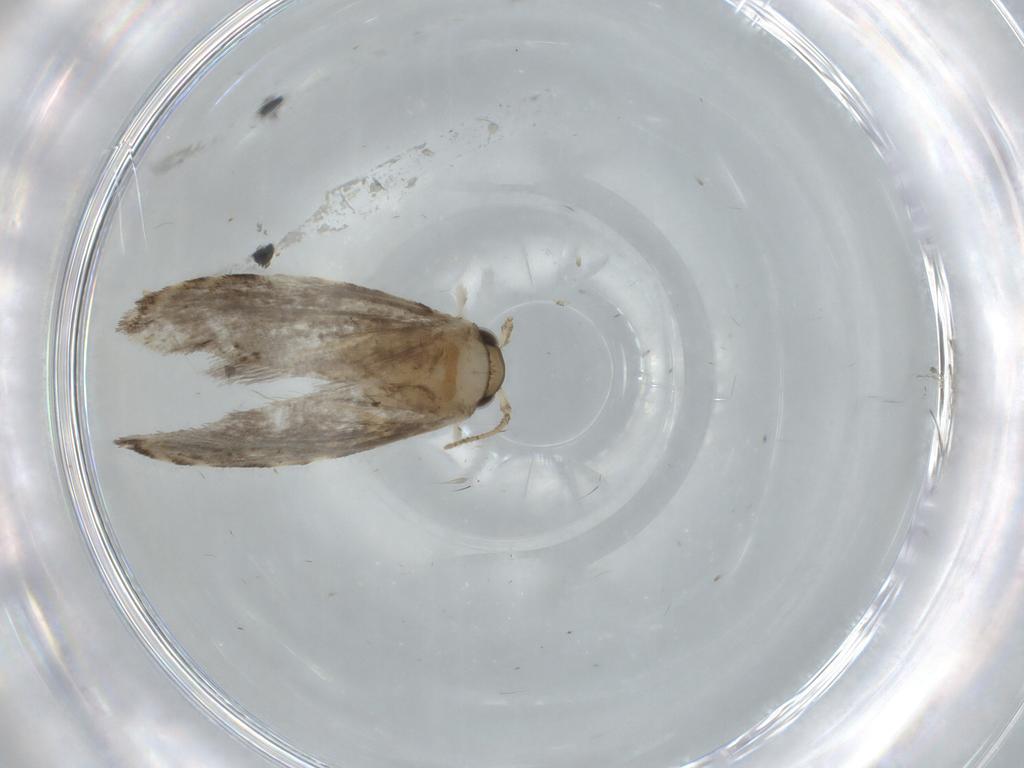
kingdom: Animalia
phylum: Arthropoda
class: Insecta
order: Lepidoptera
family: Tineidae
